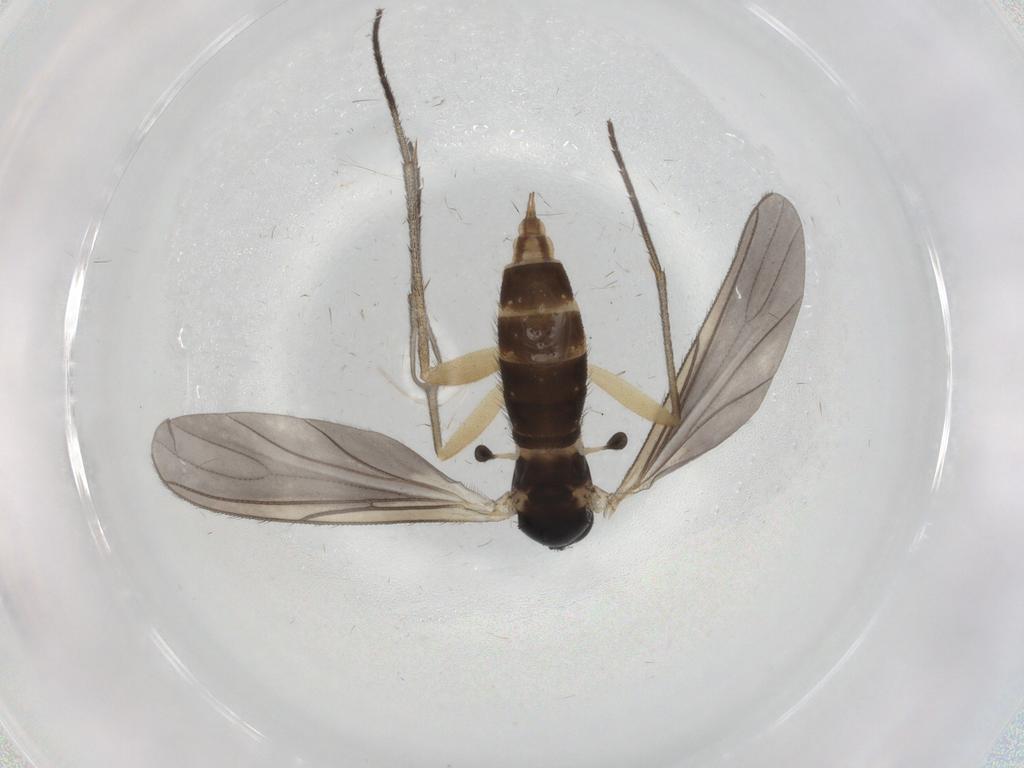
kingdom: Animalia
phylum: Arthropoda
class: Insecta
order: Diptera
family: Sciaridae
